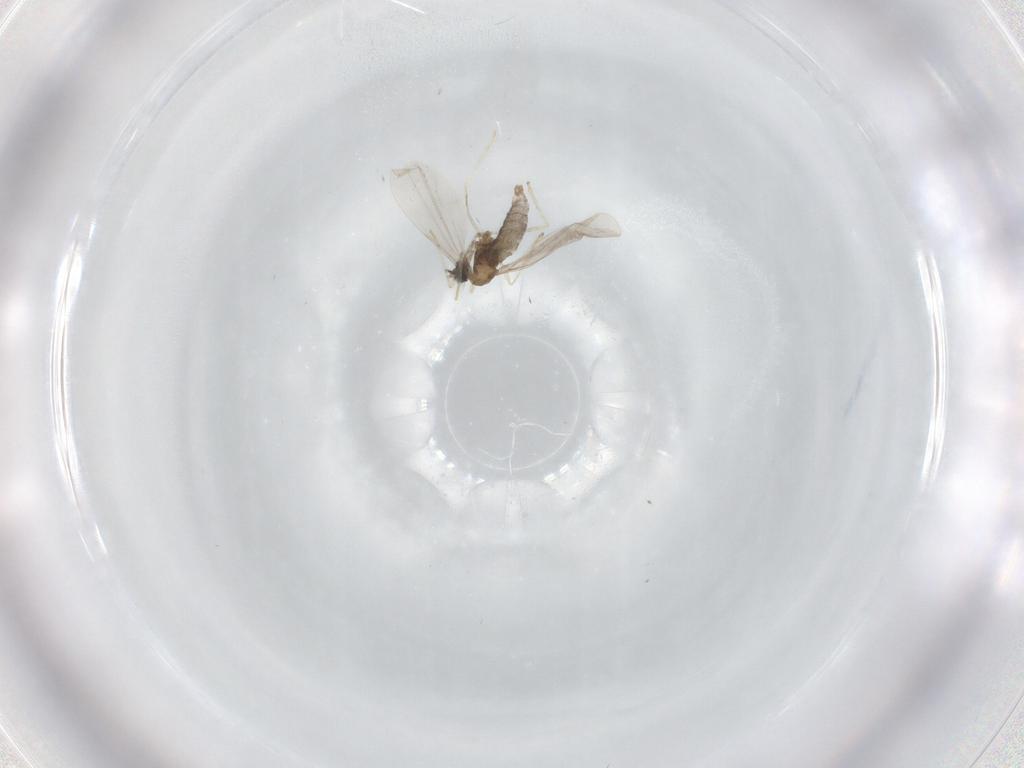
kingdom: Animalia
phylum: Arthropoda
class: Insecta
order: Diptera
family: Cecidomyiidae
